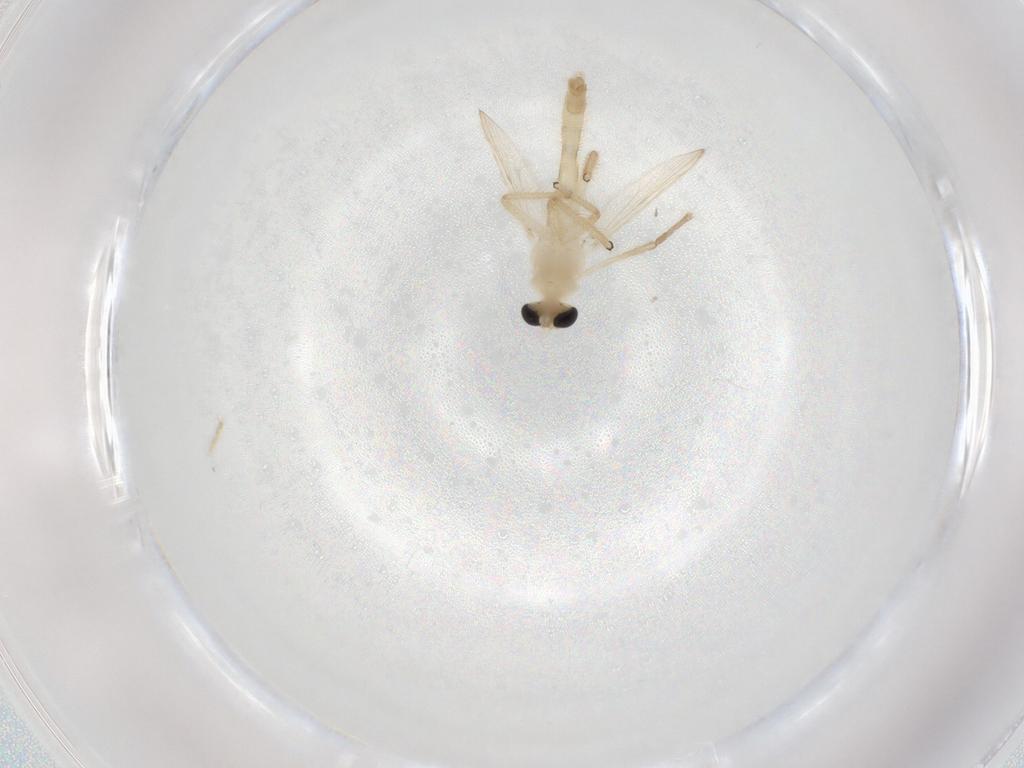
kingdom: Animalia
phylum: Arthropoda
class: Insecta
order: Diptera
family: Chironomidae
